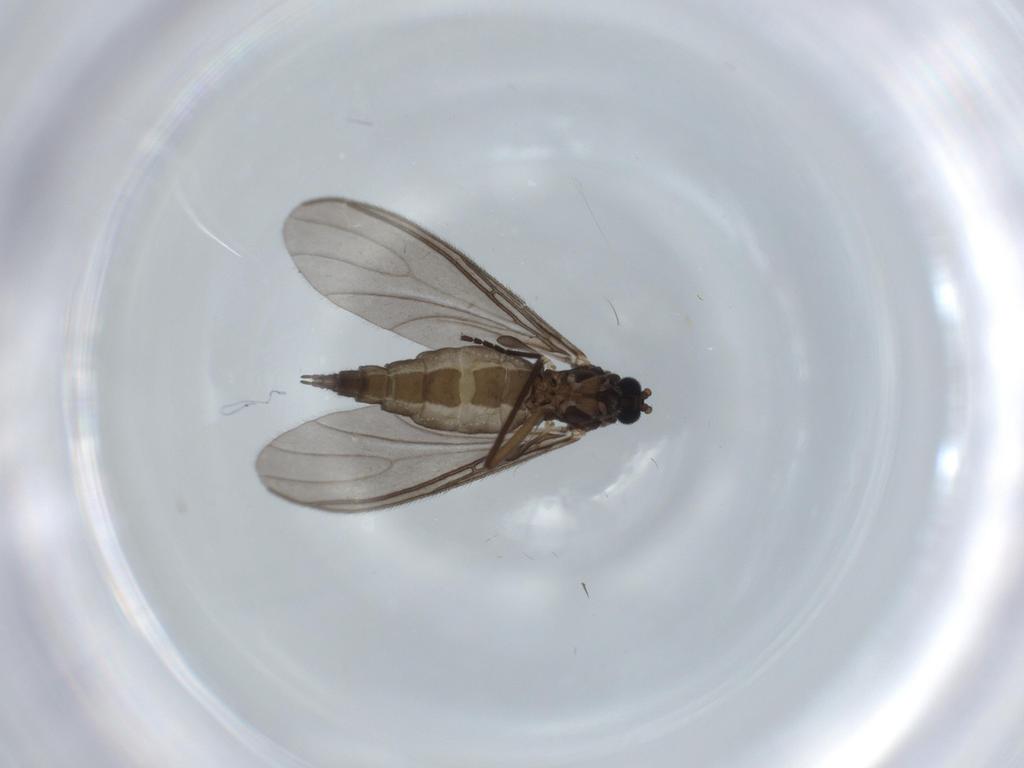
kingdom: Animalia
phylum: Arthropoda
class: Insecta
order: Diptera
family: Sciaridae
